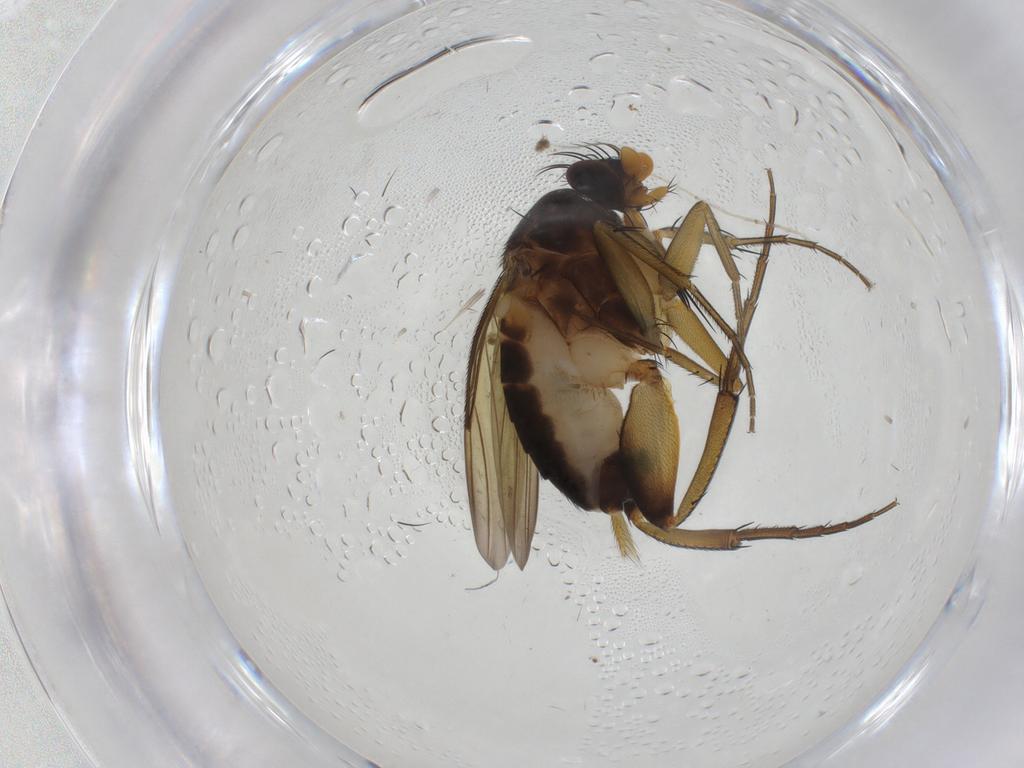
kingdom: Animalia
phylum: Arthropoda
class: Insecta
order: Diptera
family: Phoridae
